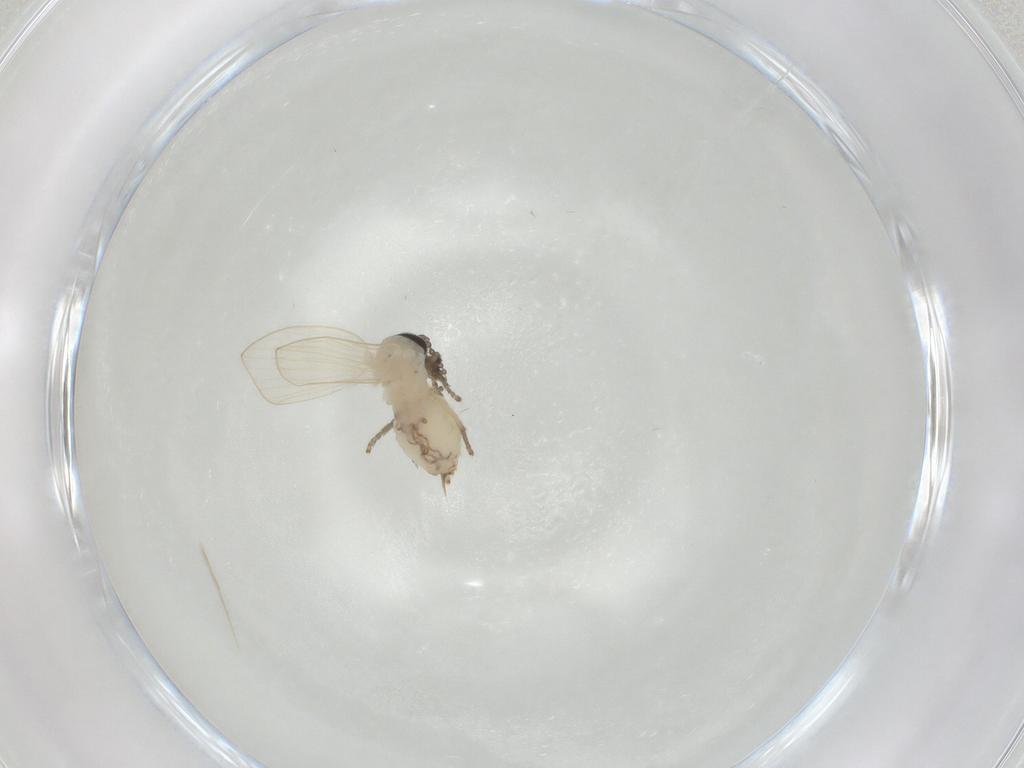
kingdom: Animalia
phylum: Arthropoda
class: Insecta
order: Diptera
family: Psychodidae
